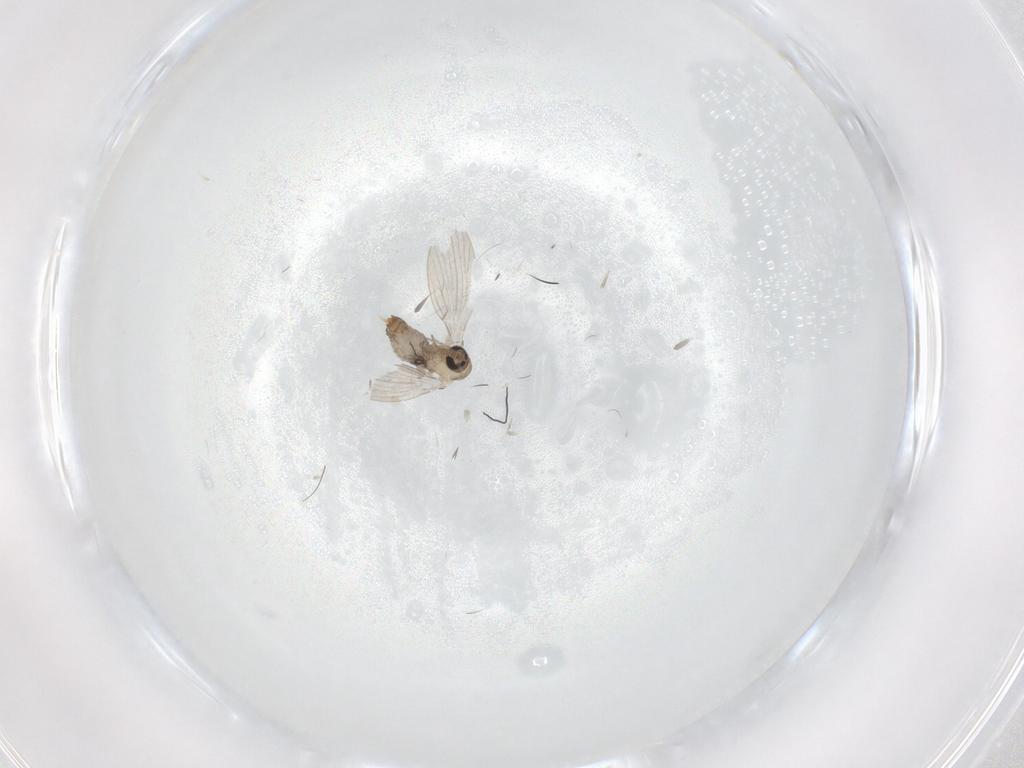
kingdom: Animalia
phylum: Arthropoda
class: Insecta
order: Diptera
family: Psychodidae
